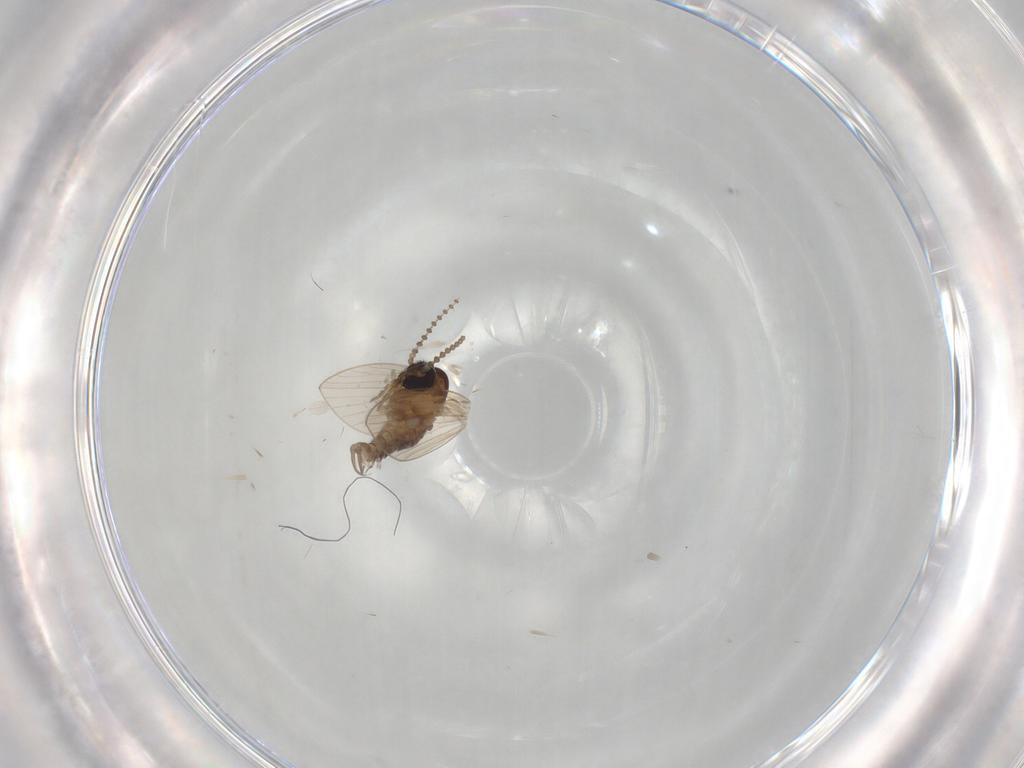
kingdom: Animalia
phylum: Arthropoda
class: Insecta
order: Diptera
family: Psychodidae
